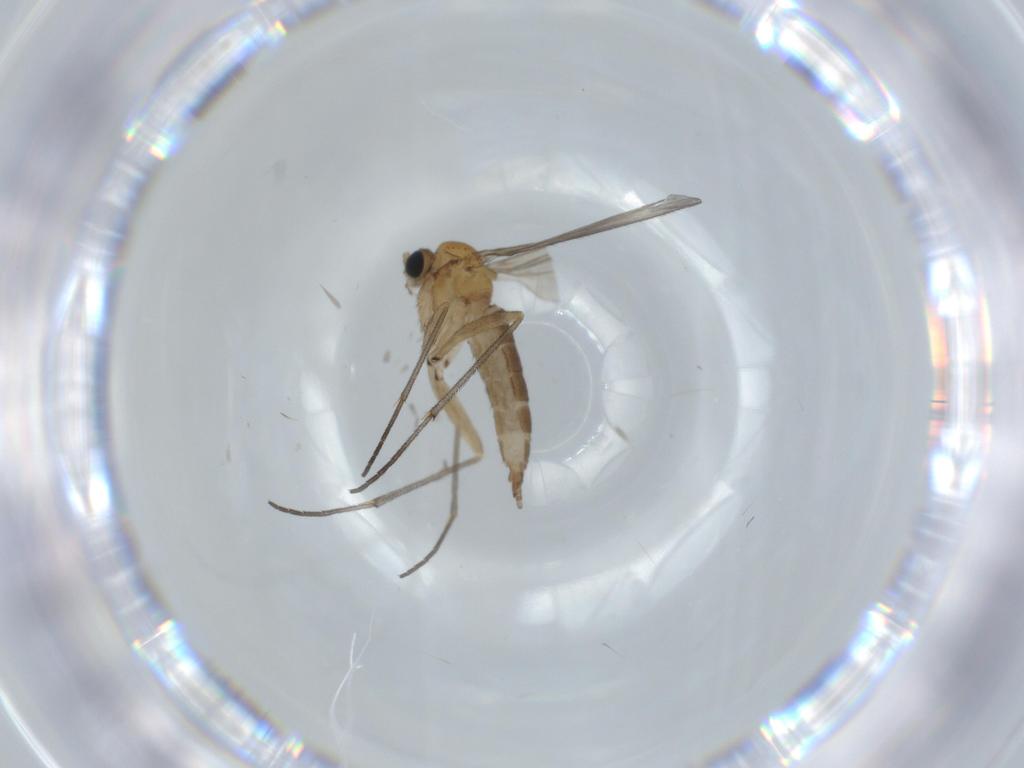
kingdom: Animalia
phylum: Arthropoda
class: Insecta
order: Diptera
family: Sciaridae
